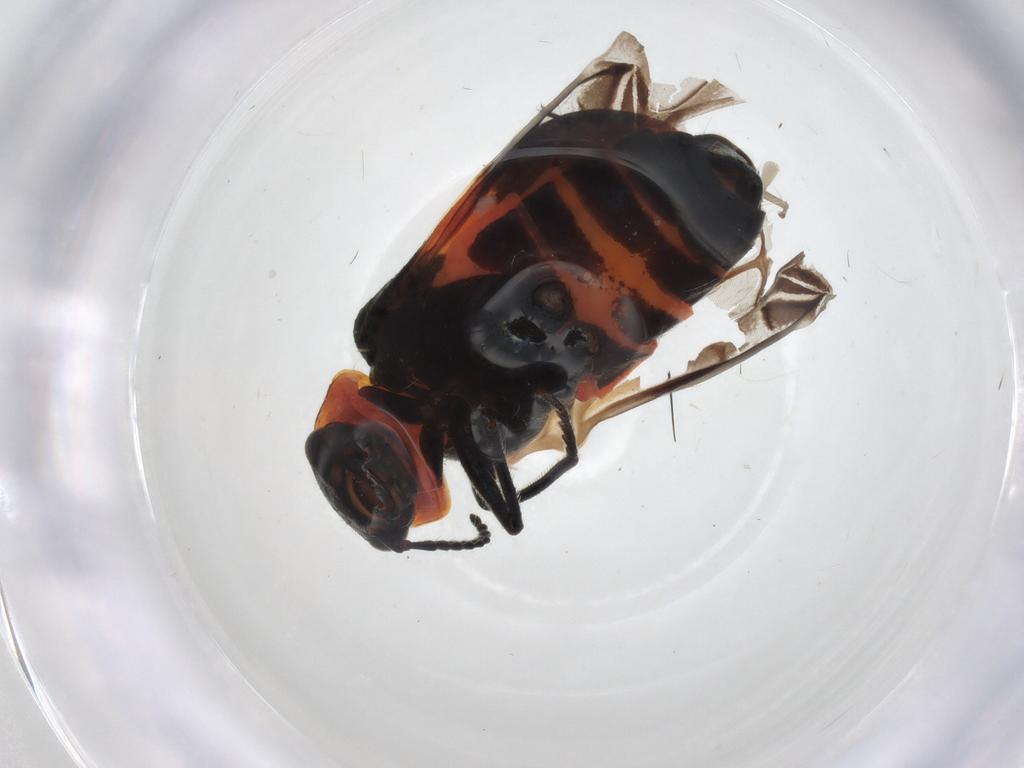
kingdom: Animalia
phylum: Arthropoda
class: Insecta
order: Coleoptera
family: Melyridae
